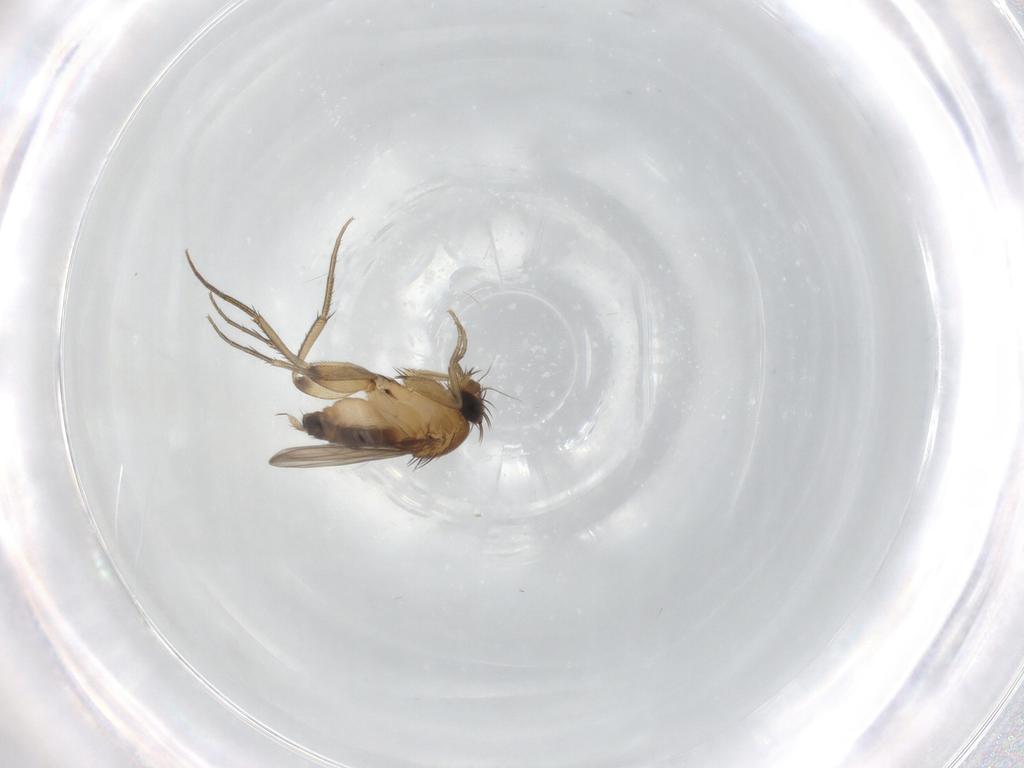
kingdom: Animalia
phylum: Arthropoda
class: Insecta
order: Diptera
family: Phoridae
